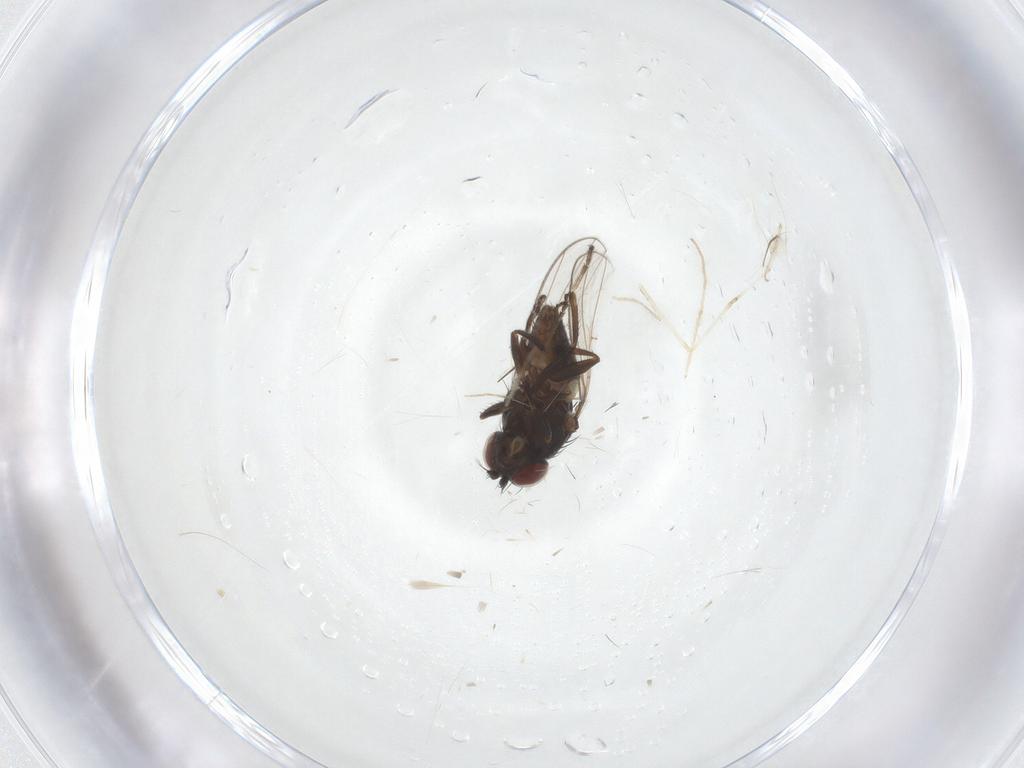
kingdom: Animalia
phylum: Arthropoda
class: Insecta
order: Diptera
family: Ephydridae
